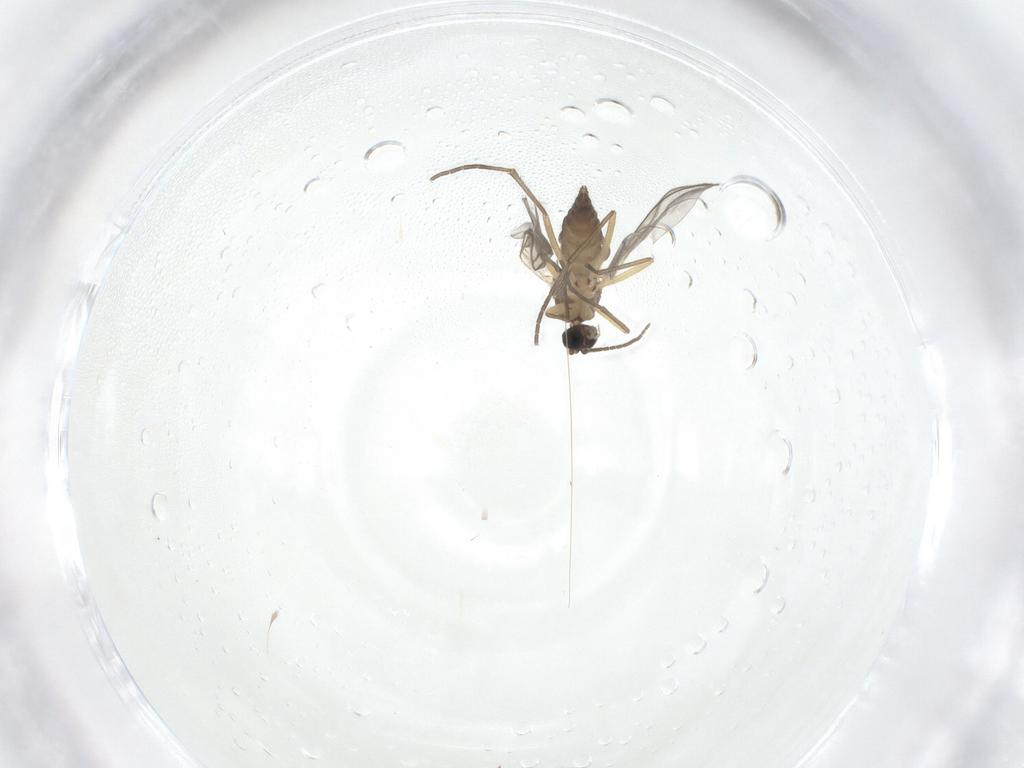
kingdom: Animalia
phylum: Arthropoda
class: Insecta
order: Diptera
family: Sciaridae
